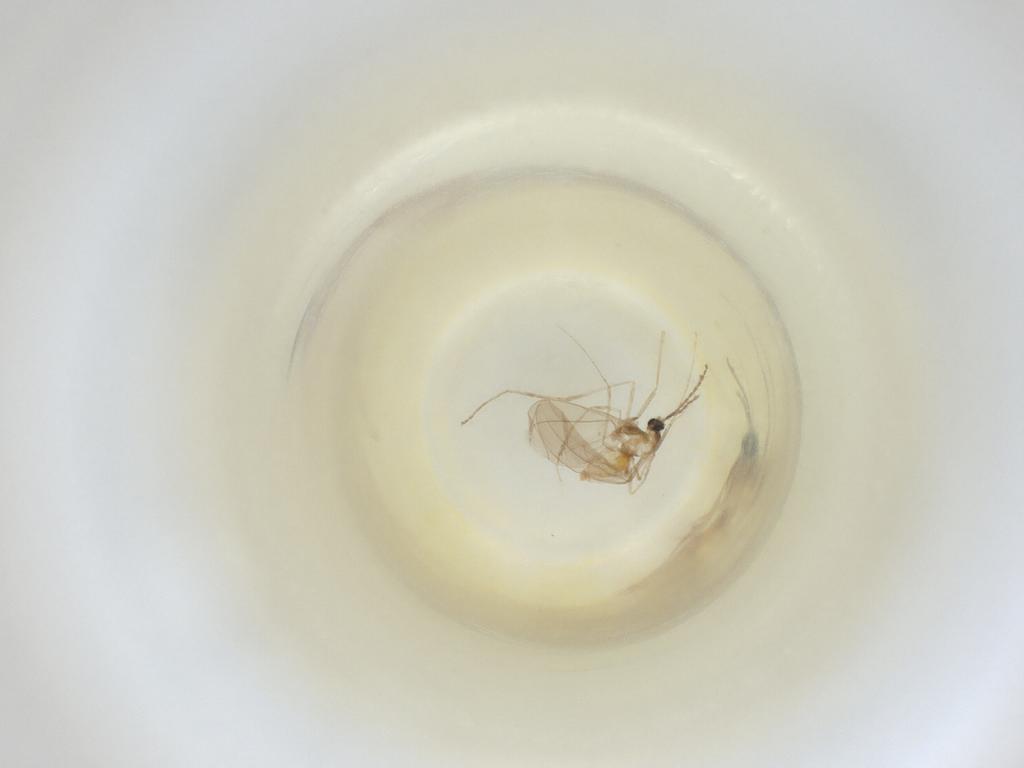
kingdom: Animalia
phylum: Arthropoda
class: Insecta
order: Diptera
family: Cecidomyiidae
